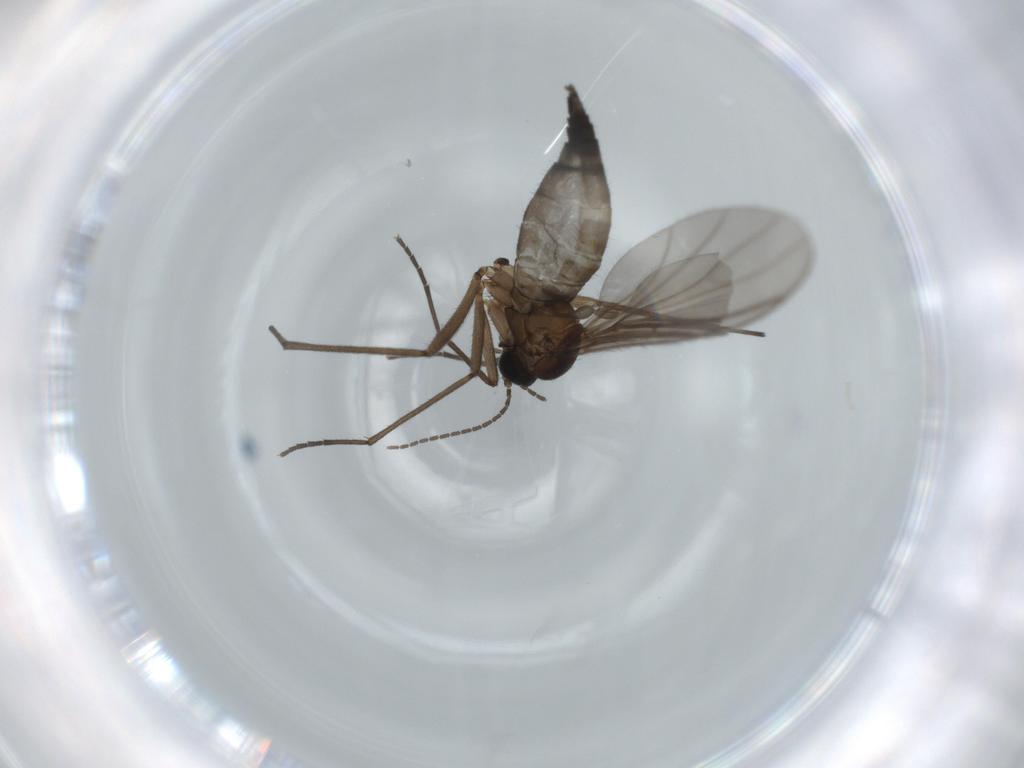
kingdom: Animalia
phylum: Arthropoda
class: Insecta
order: Diptera
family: Sciaridae
